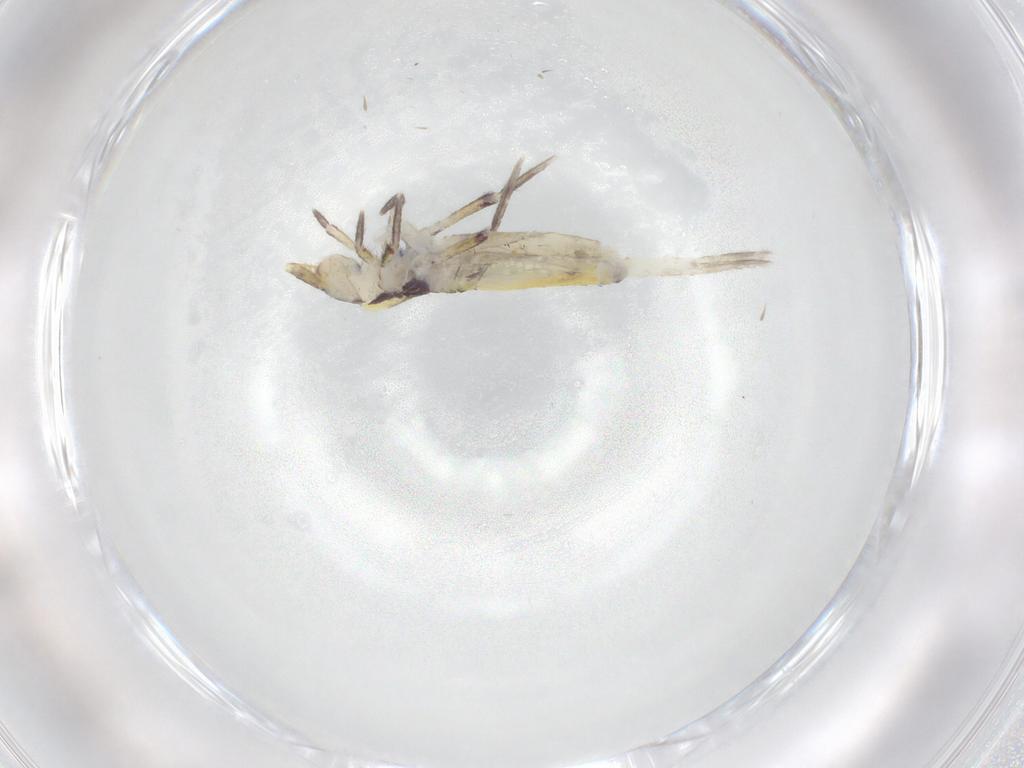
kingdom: Animalia
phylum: Arthropoda
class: Collembola
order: Entomobryomorpha
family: Entomobryidae
